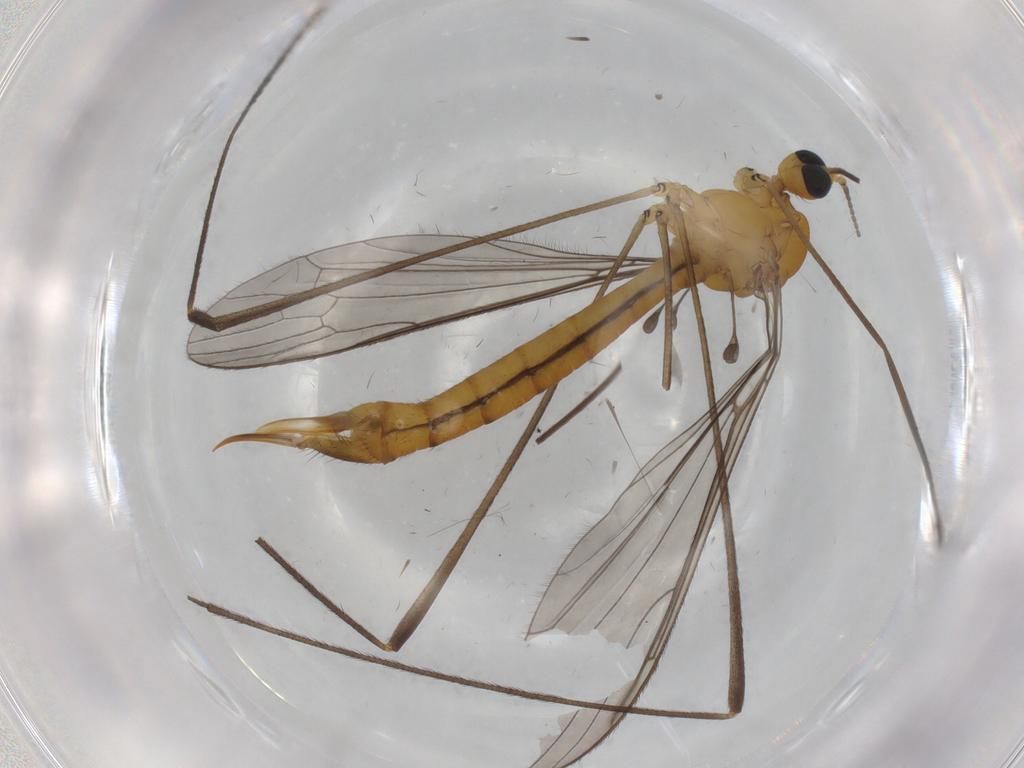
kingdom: Animalia
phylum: Arthropoda
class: Insecta
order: Diptera
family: Limoniidae
